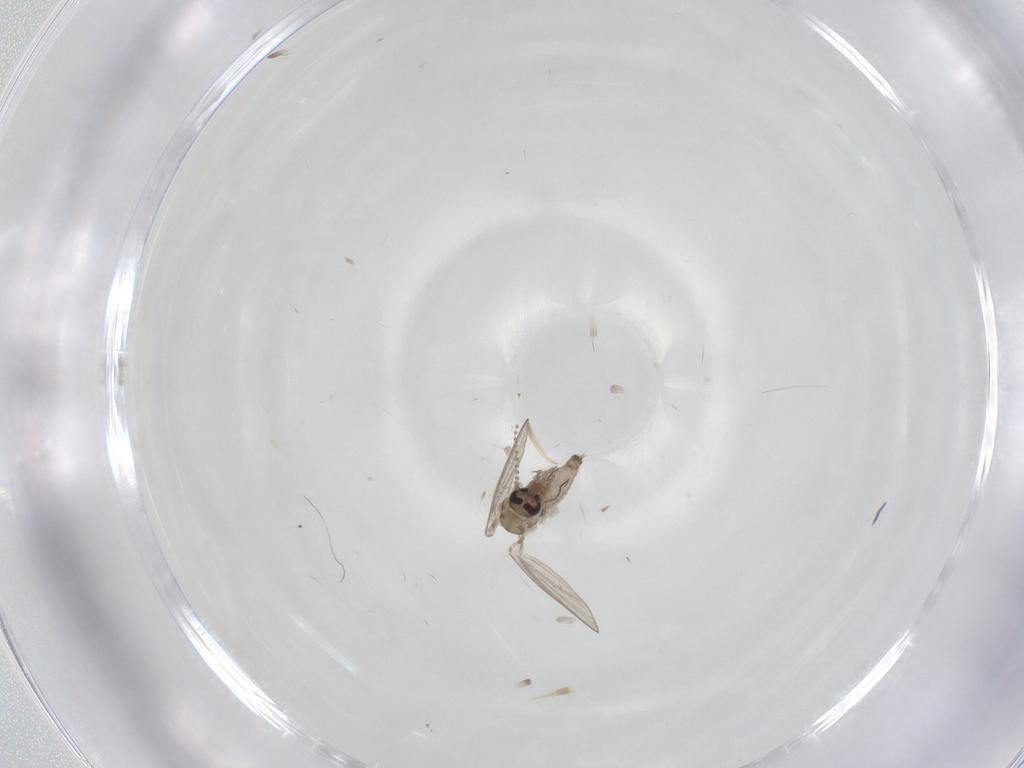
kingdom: Animalia
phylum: Arthropoda
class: Insecta
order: Diptera
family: Psychodidae
